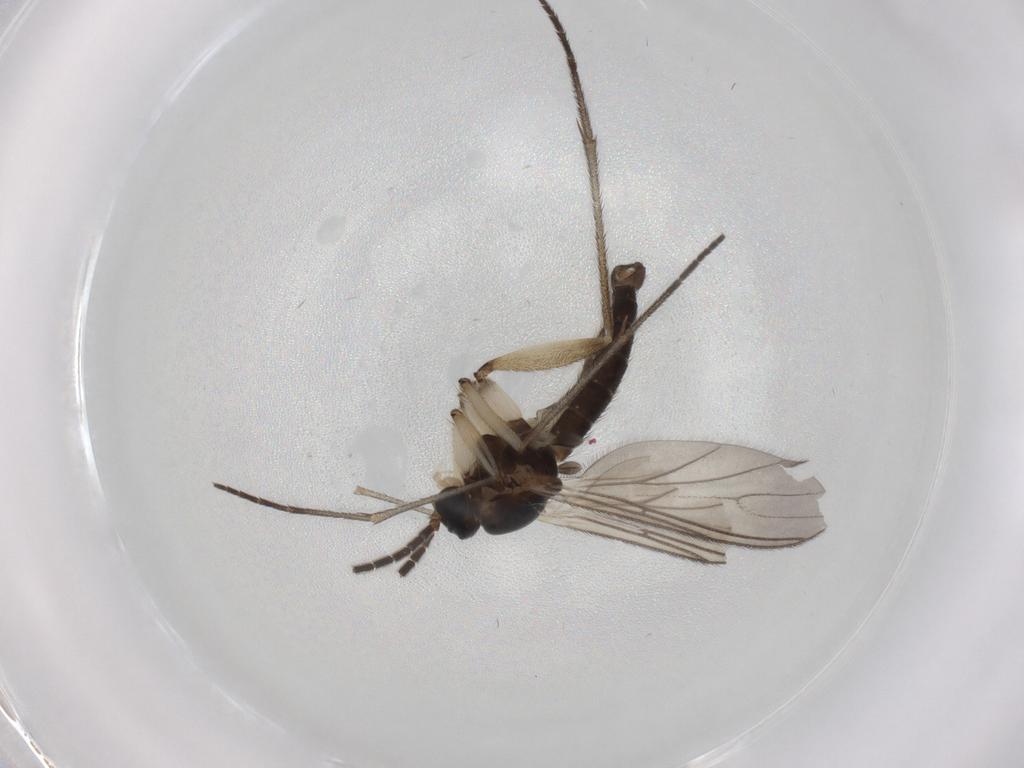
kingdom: Animalia
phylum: Arthropoda
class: Insecta
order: Diptera
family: Sciaridae
